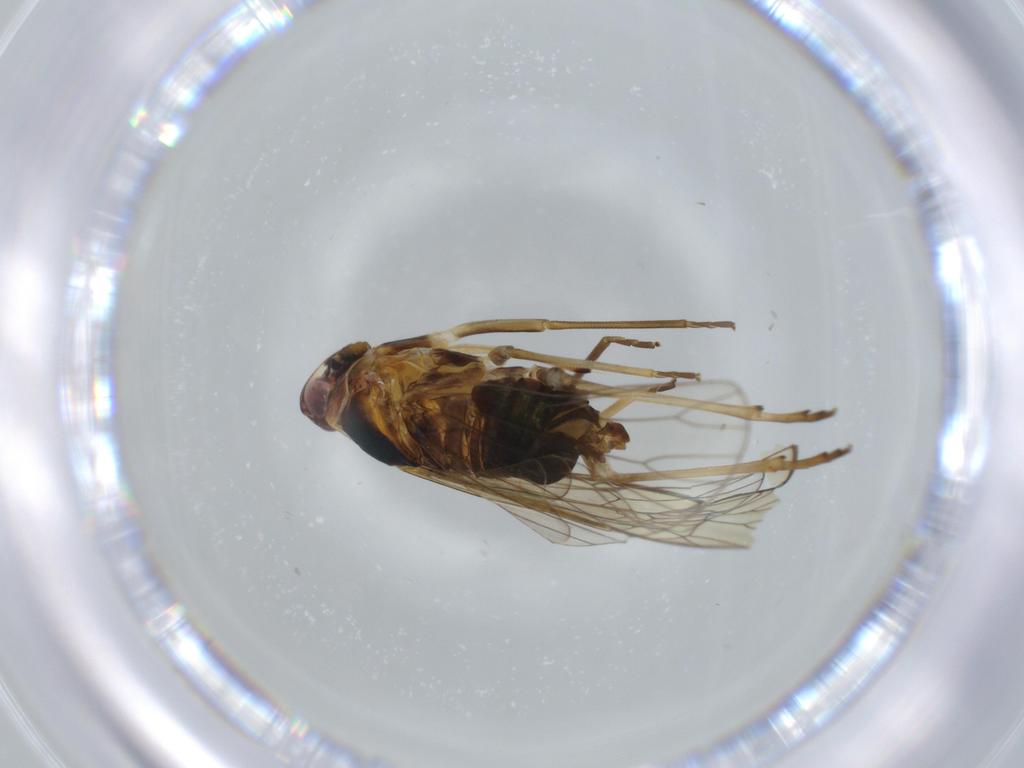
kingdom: Animalia
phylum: Arthropoda
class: Insecta
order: Hemiptera
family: Kinnaridae
